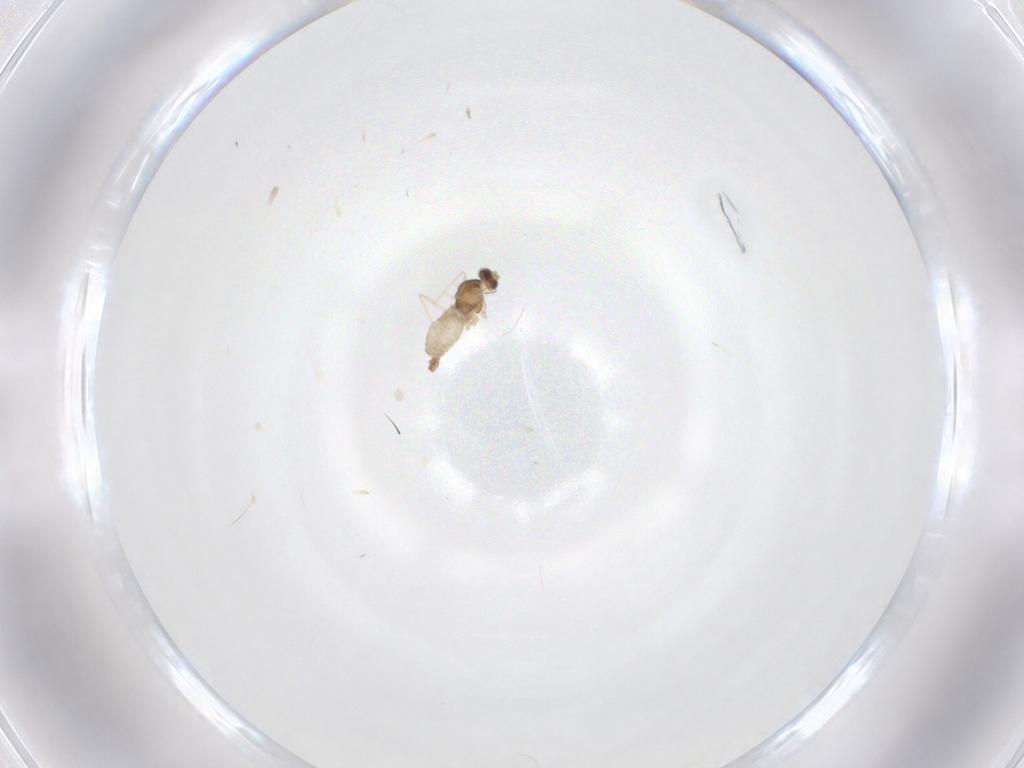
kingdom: Animalia
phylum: Arthropoda
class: Insecta
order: Diptera
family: Cecidomyiidae
